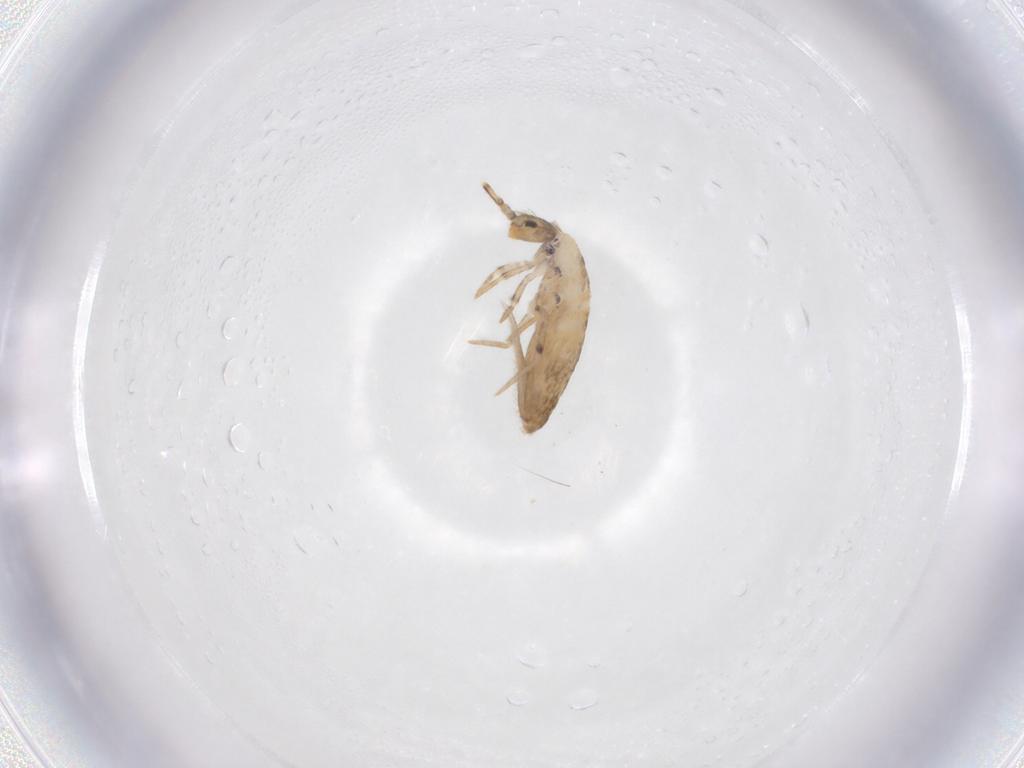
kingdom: Animalia
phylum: Arthropoda
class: Collembola
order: Entomobryomorpha
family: Entomobryidae
